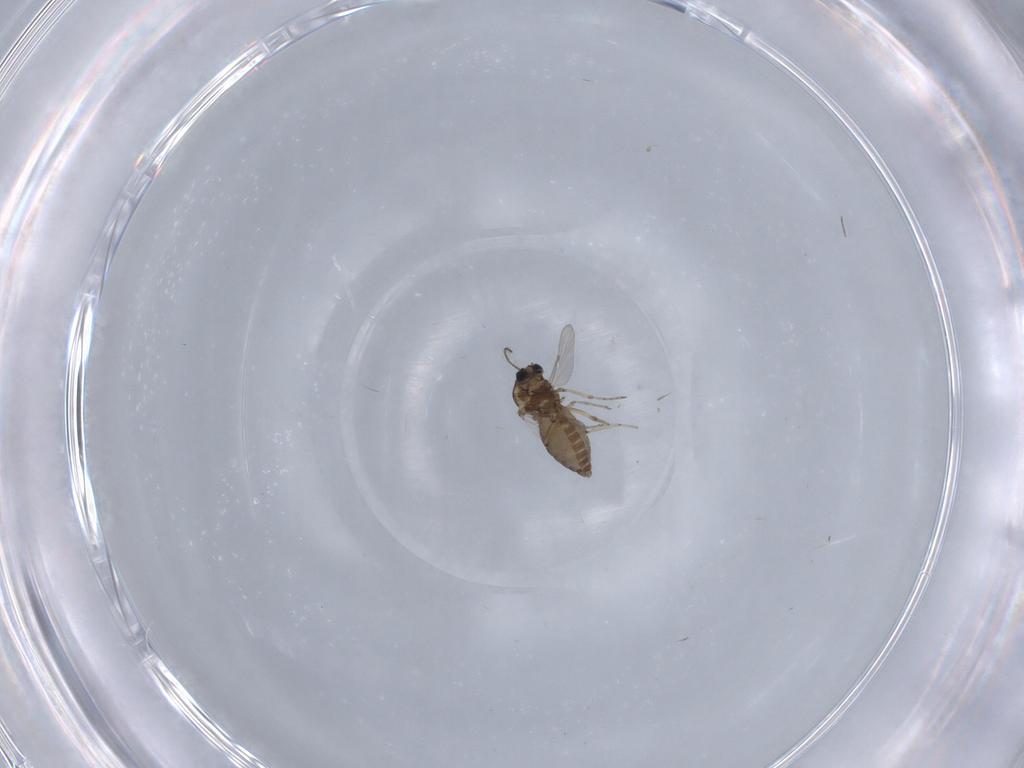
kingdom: Animalia
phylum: Arthropoda
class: Insecta
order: Diptera
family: Ceratopogonidae
